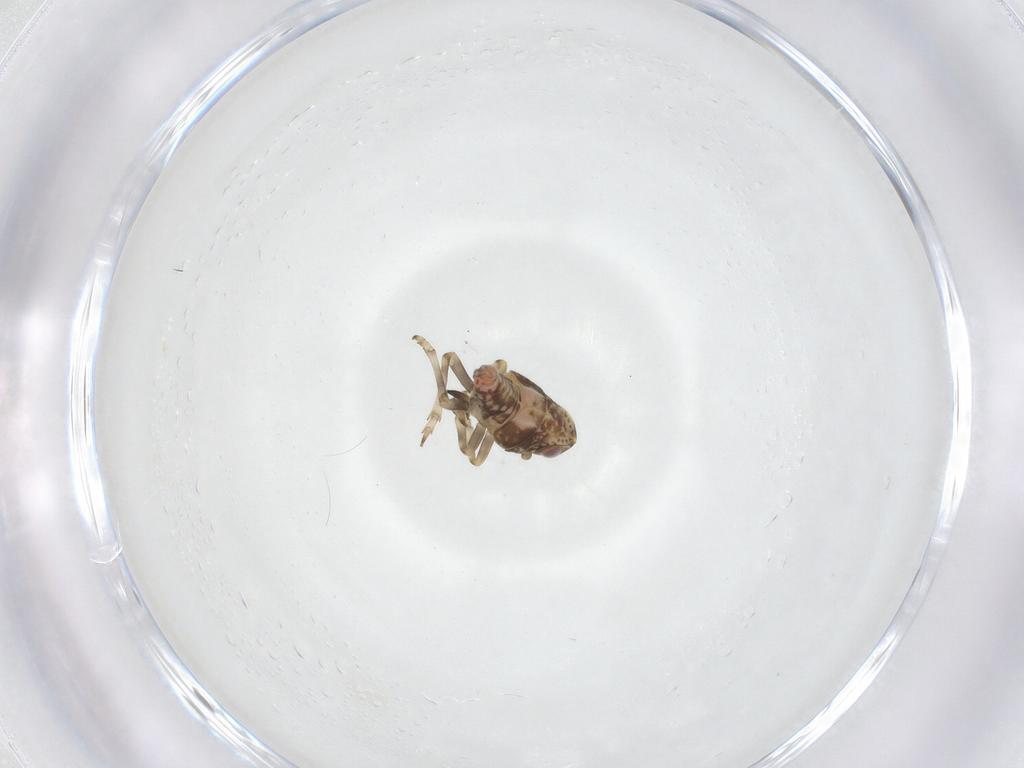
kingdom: Animalia
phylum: Arthropoda
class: Insecta
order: Hemiptera
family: Tropiduchidae
